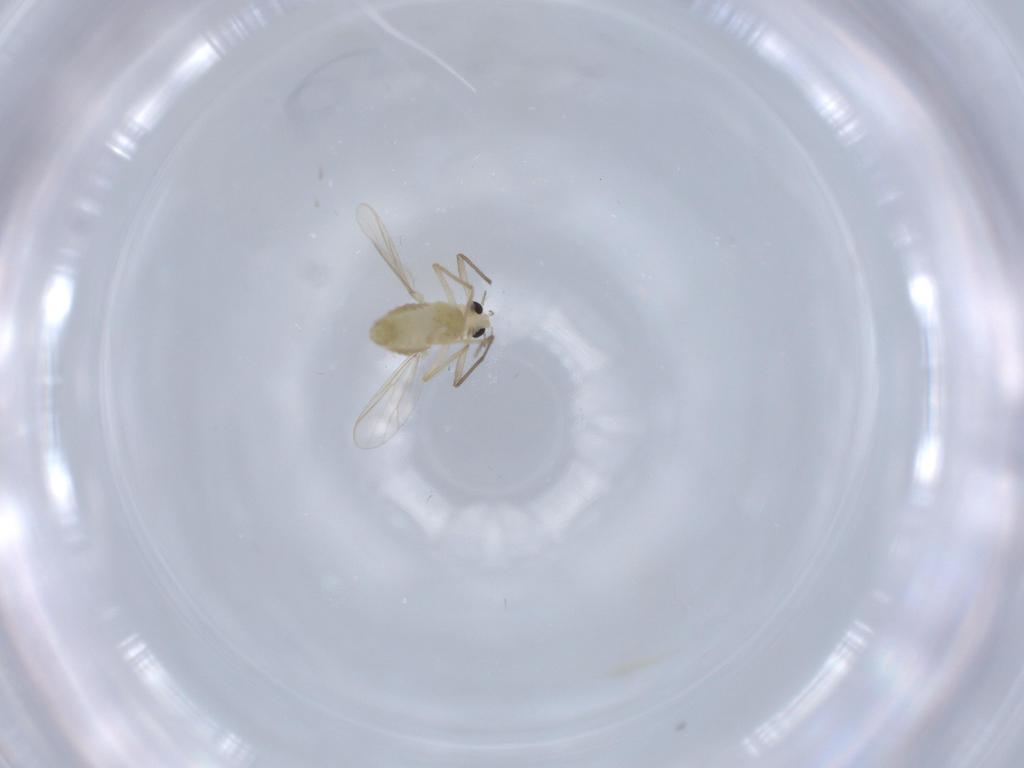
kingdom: Animalia
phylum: Arthropoda
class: Insecta
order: Diptera
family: Chironomidae
